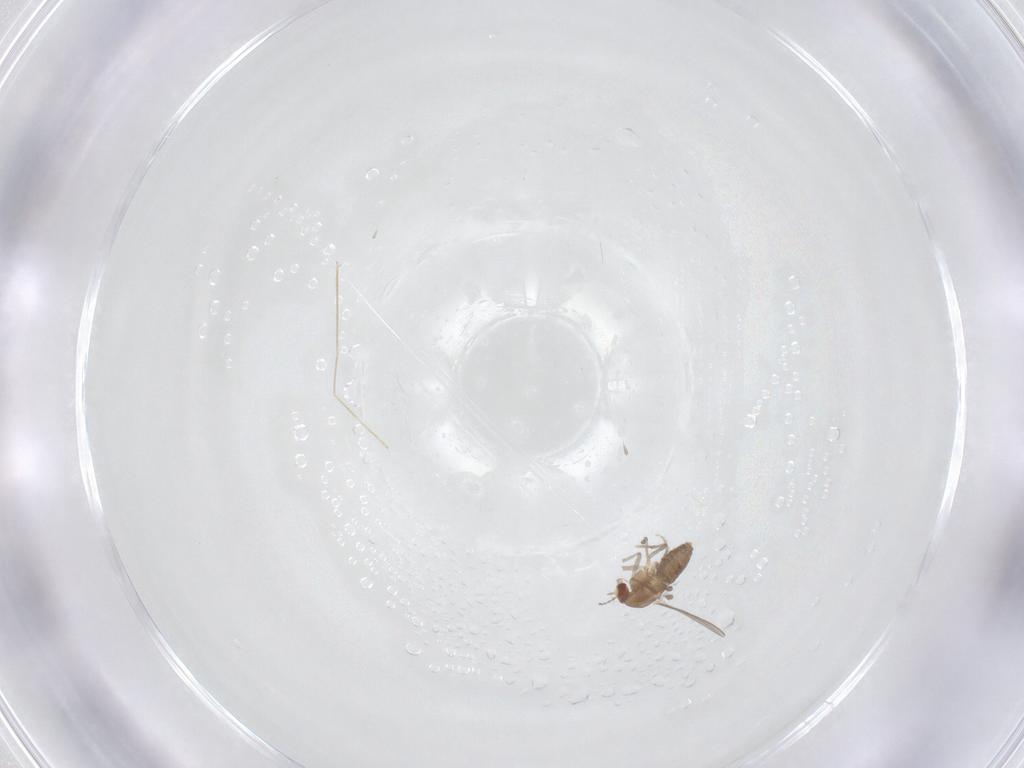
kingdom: Animalia
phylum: Arthropoda
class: Insecta
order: Diptera
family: Chironomidae
